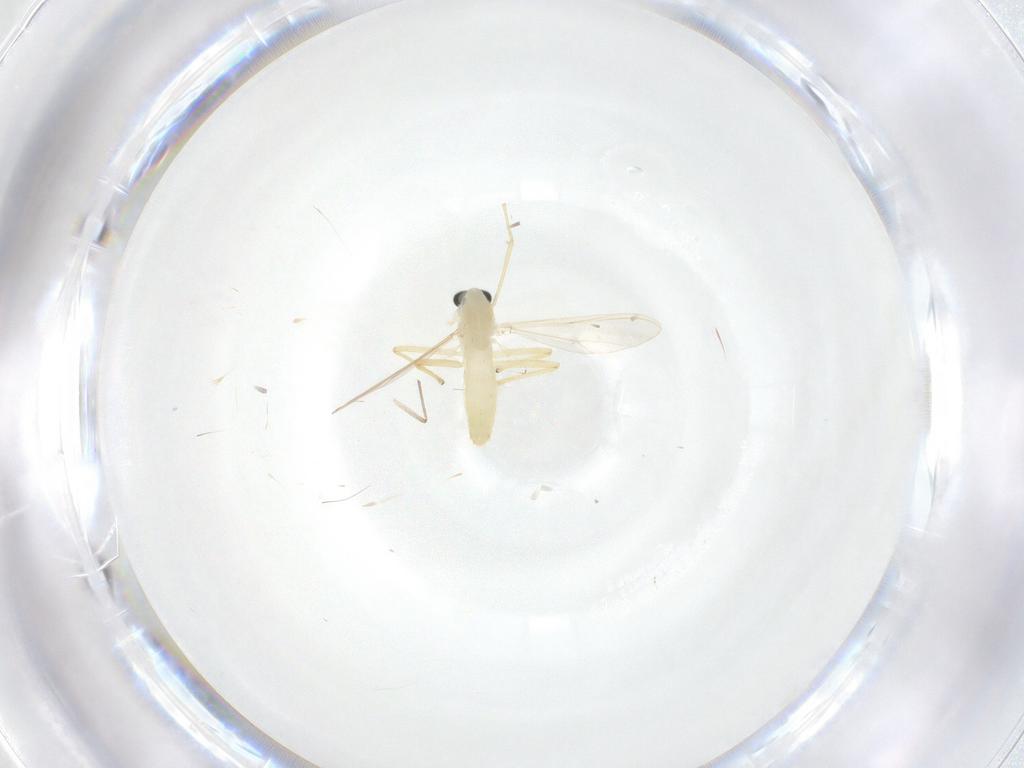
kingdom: Animalia
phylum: Arthropoda
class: Insecta
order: Diptera
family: Chironomidae
